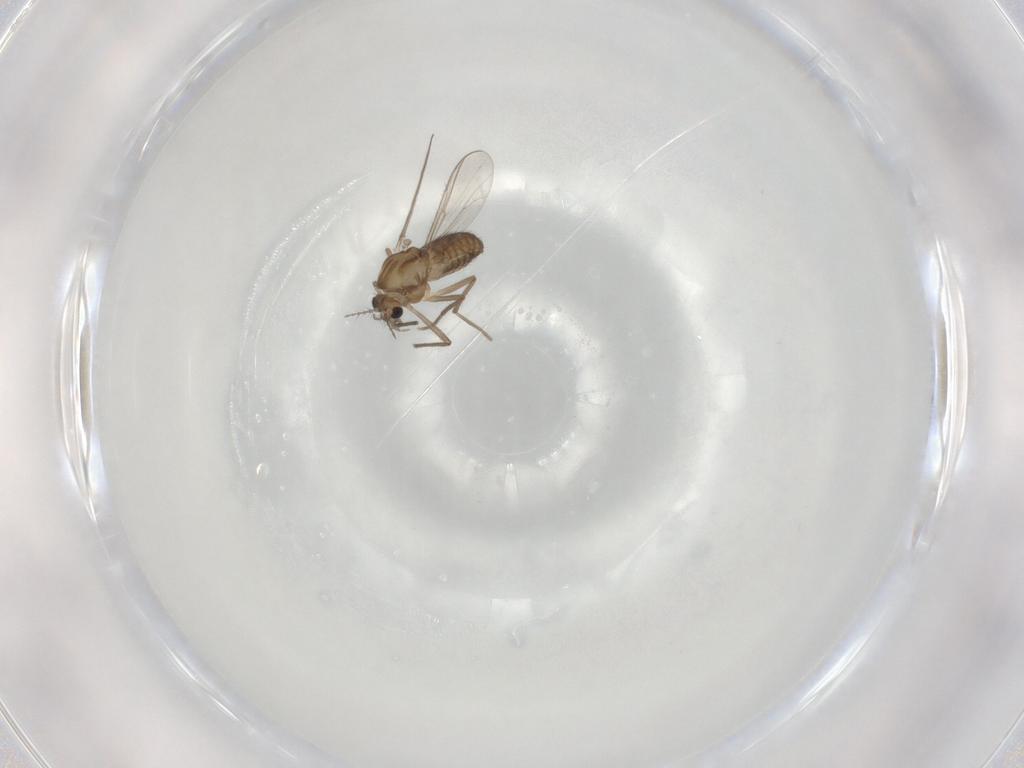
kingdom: Animalia
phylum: Arthropoda
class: Insecta
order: Diptera
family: Chironomidae
